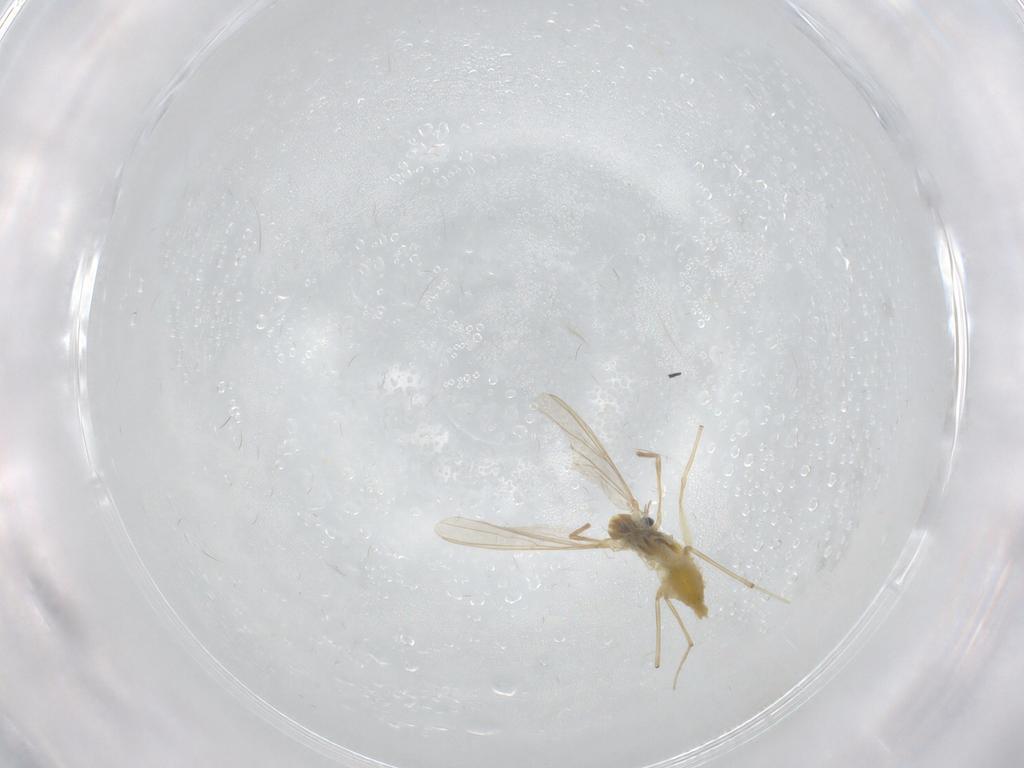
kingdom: Animalia
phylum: Arthropoda
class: Insecta
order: Diptera
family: Chironomidae
